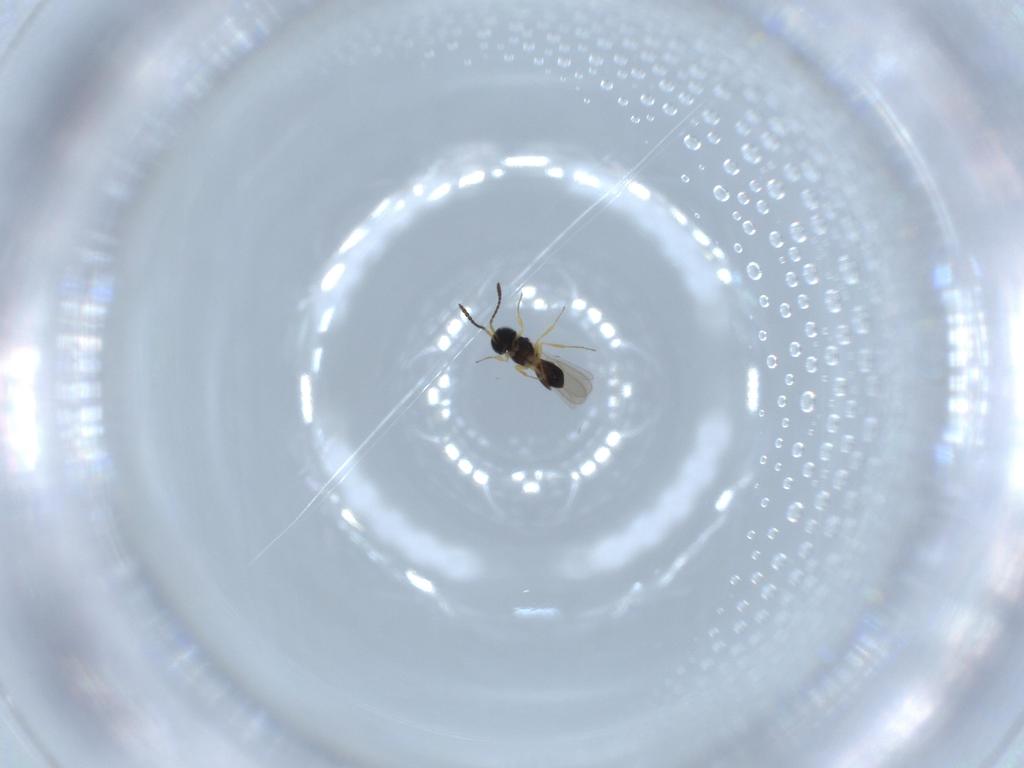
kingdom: Animalia
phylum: Arthropoda
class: Insecta
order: Hymenoptera
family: Scelionidae
